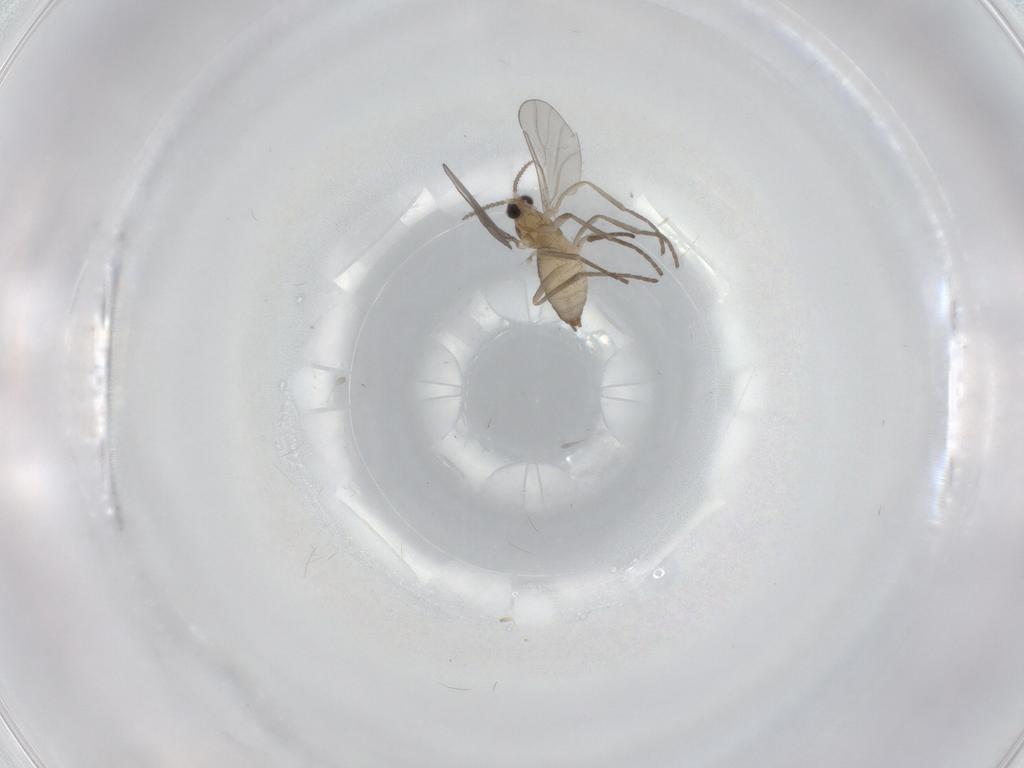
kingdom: Animalia
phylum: Arthropoda
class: Insecta
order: Diptera
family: Cecidomyiidae
